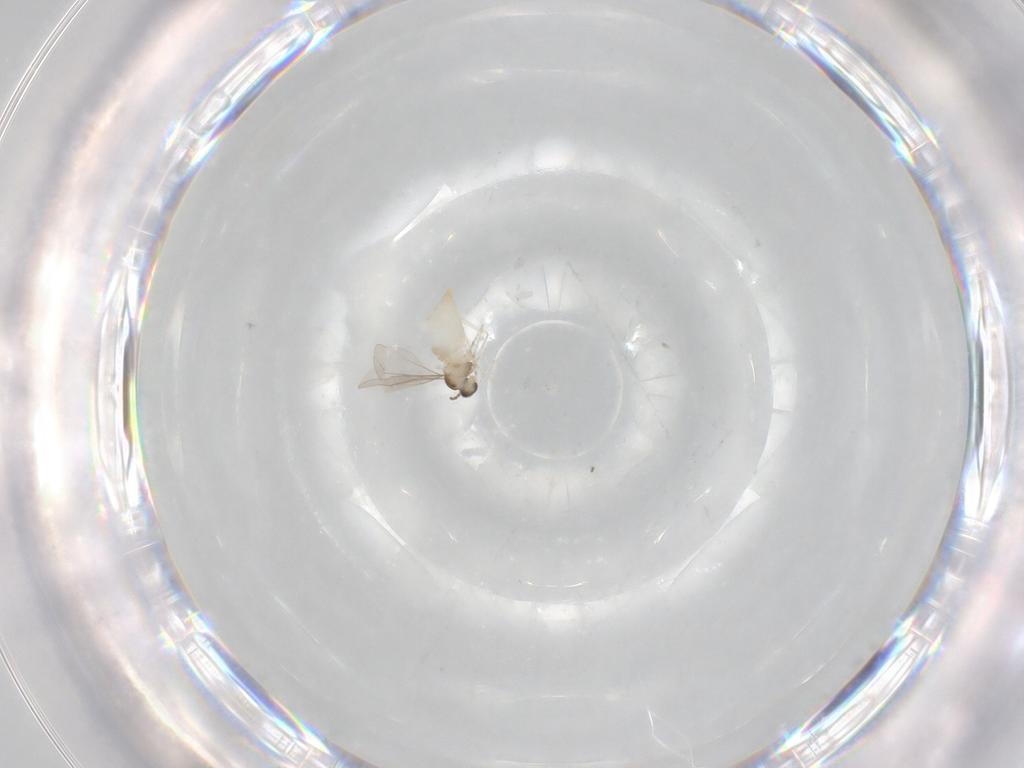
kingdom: Animalia
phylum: Arthropoda
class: Insecta
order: Diptera
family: Cecidomyiidae
